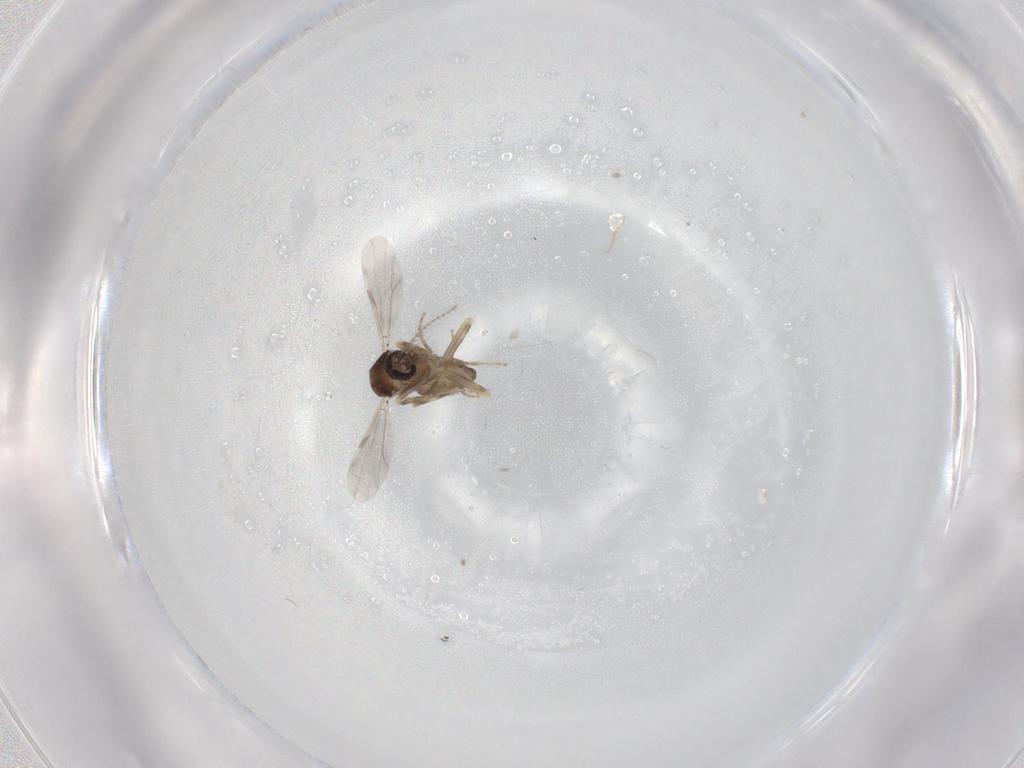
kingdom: Animalia
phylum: Arthropoda
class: Insecta
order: Diptera
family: Ceratopogonidae
